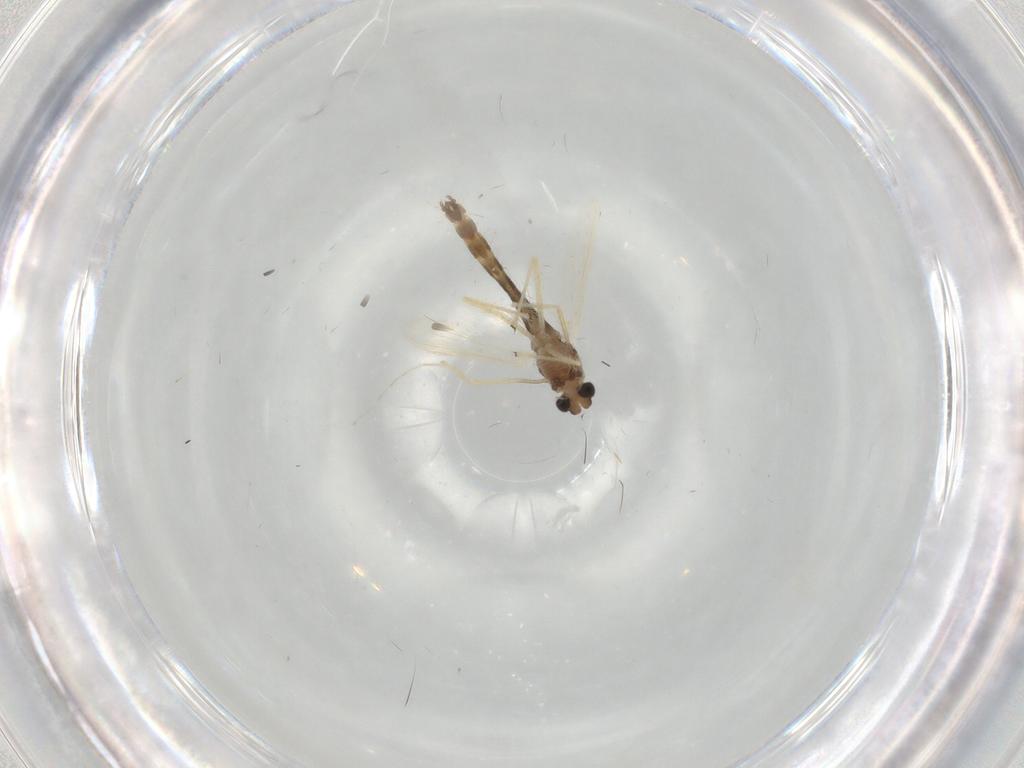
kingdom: Animalia
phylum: Arthropoda
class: Insecta
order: Diptera
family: Chironomidae
